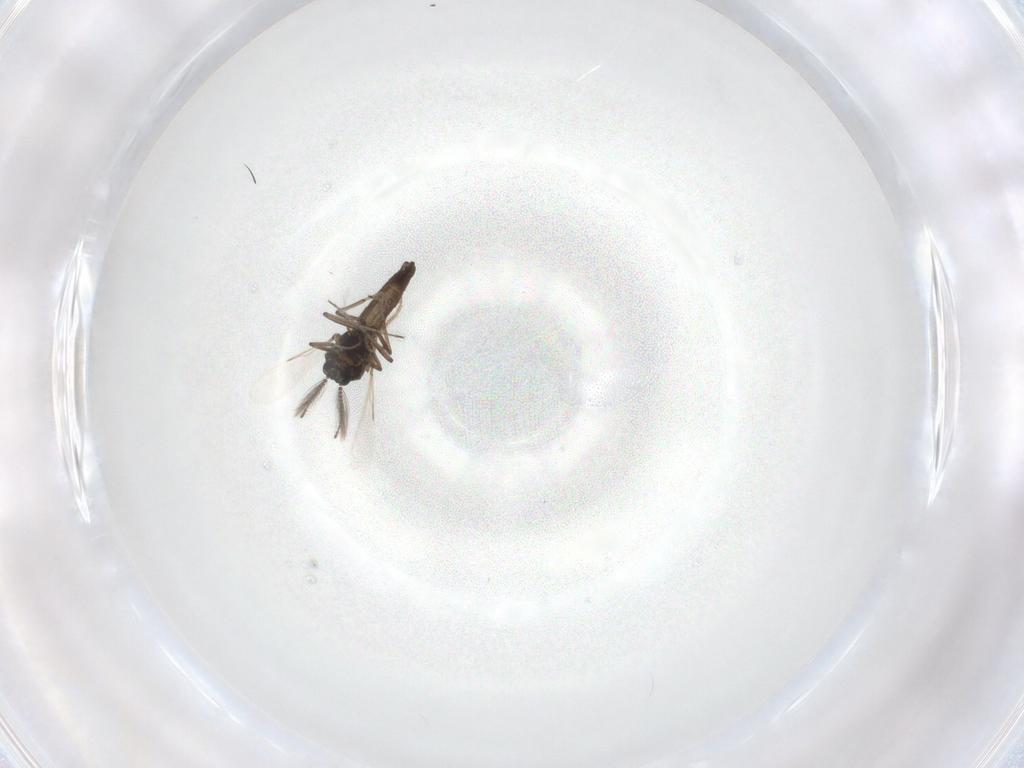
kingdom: Animalia
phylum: Arthropoda
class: Insecta
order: Diptera
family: Ceratopogonidae
